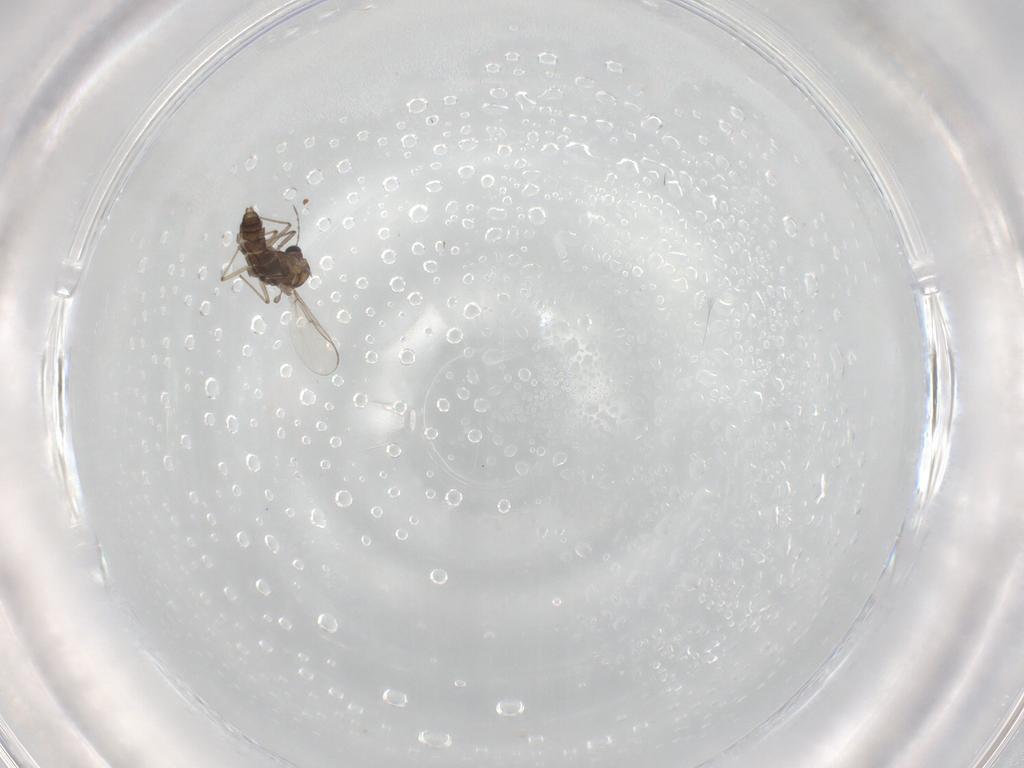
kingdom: Animalia
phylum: Arthropoda
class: Insecta
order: Diptera
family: Chironomidae
